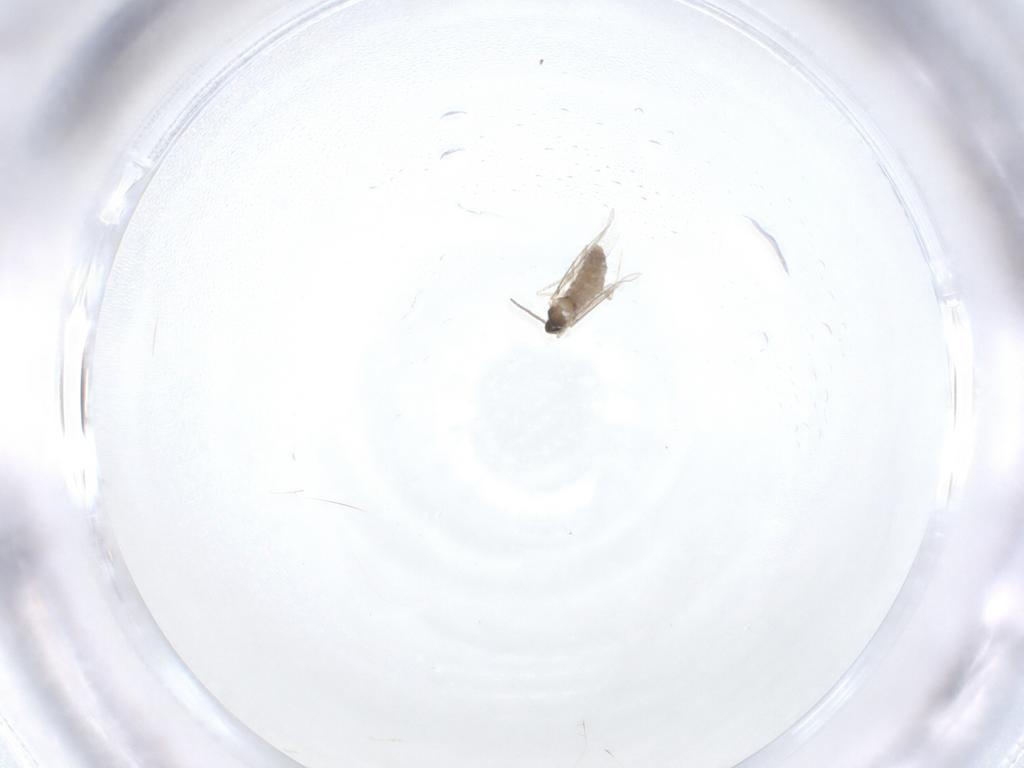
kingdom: Animalia
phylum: Arthropoda
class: Insecta
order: Diptera
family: Cecidomyiidae
